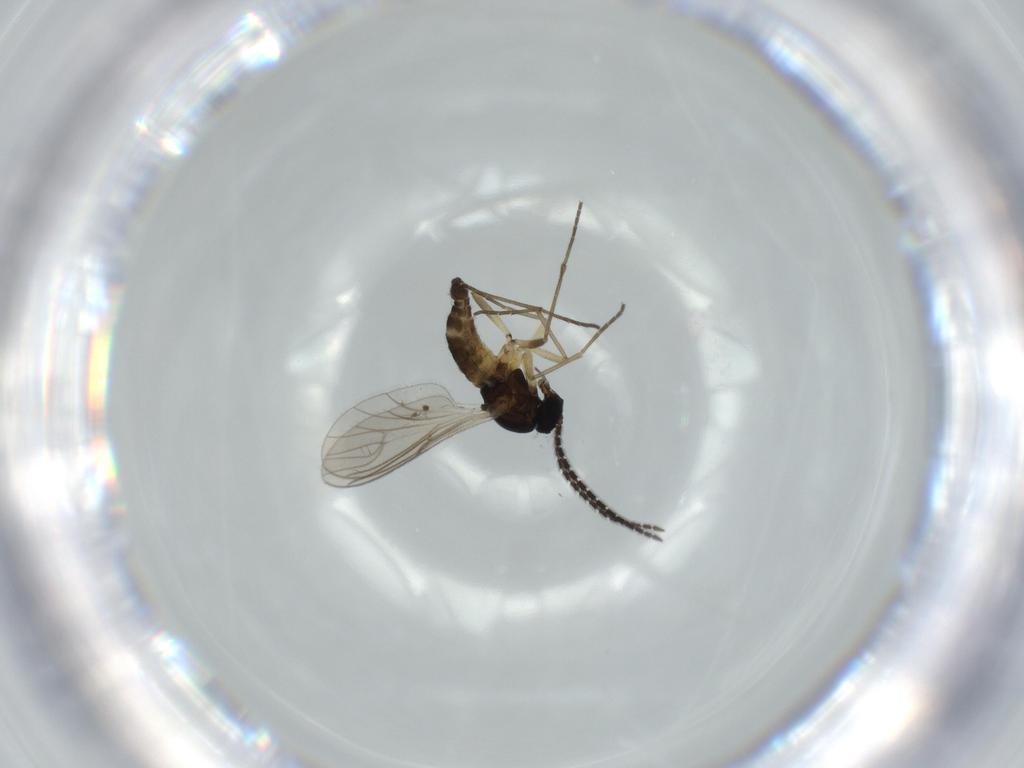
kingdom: Animalia
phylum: Arthropoda
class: Insecta
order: Diptera
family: Sciaridae
